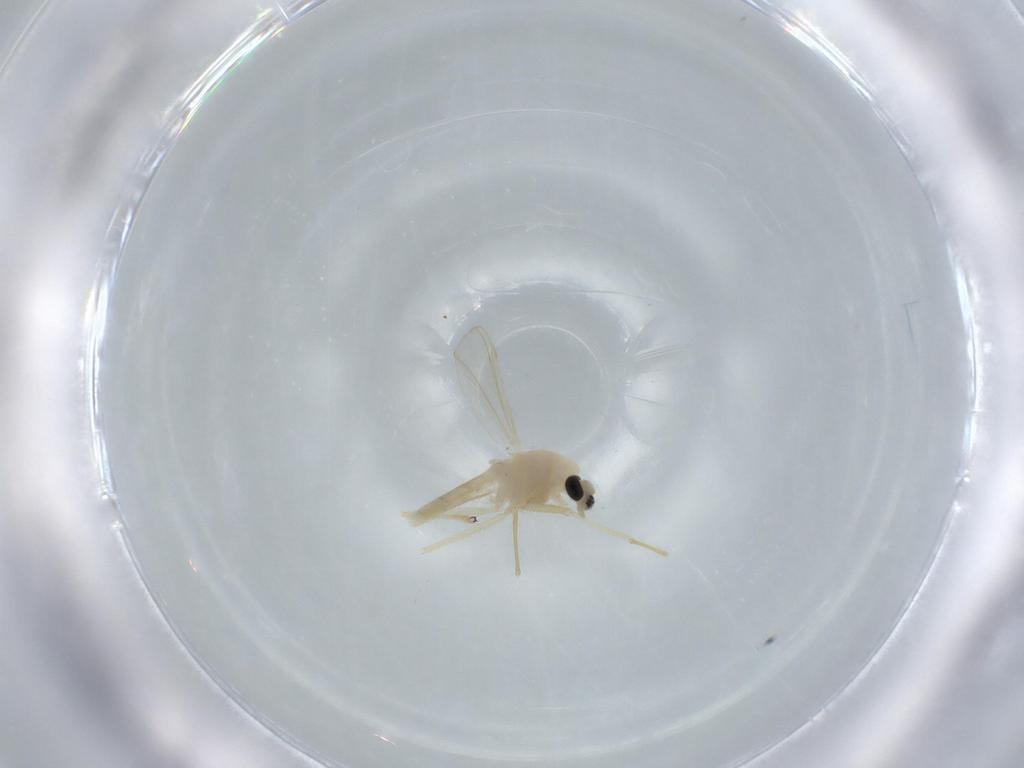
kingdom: Animalia
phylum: Arthropoda
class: Insecta
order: Diptera
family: Chironomidae
